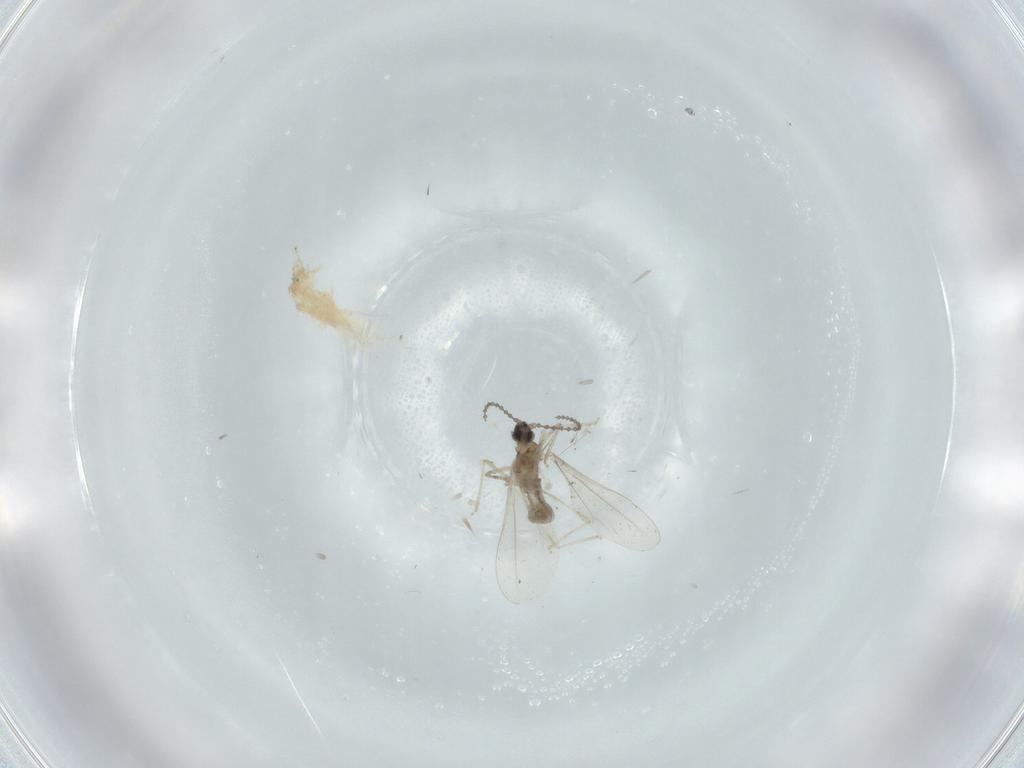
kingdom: Animalia
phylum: Arthropoda
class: Insecta
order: Diptera
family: Cecidomyiidae
